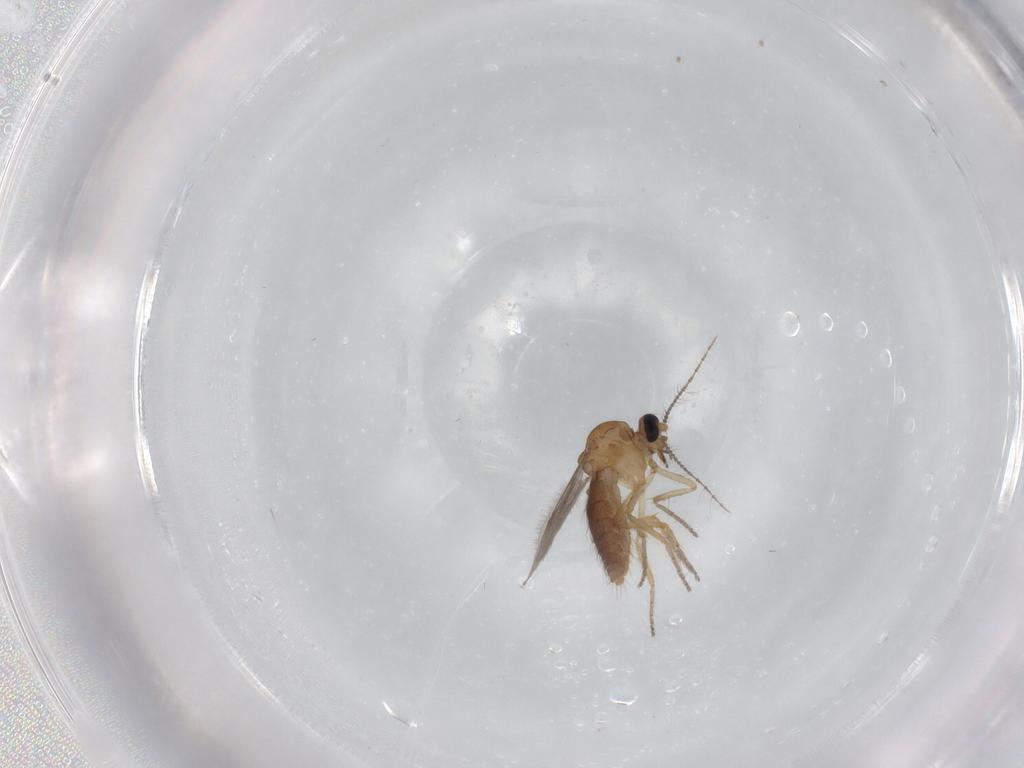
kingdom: Animalia
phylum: Arthropoda
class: Insecta
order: Diptera
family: Ceratopogonidae
